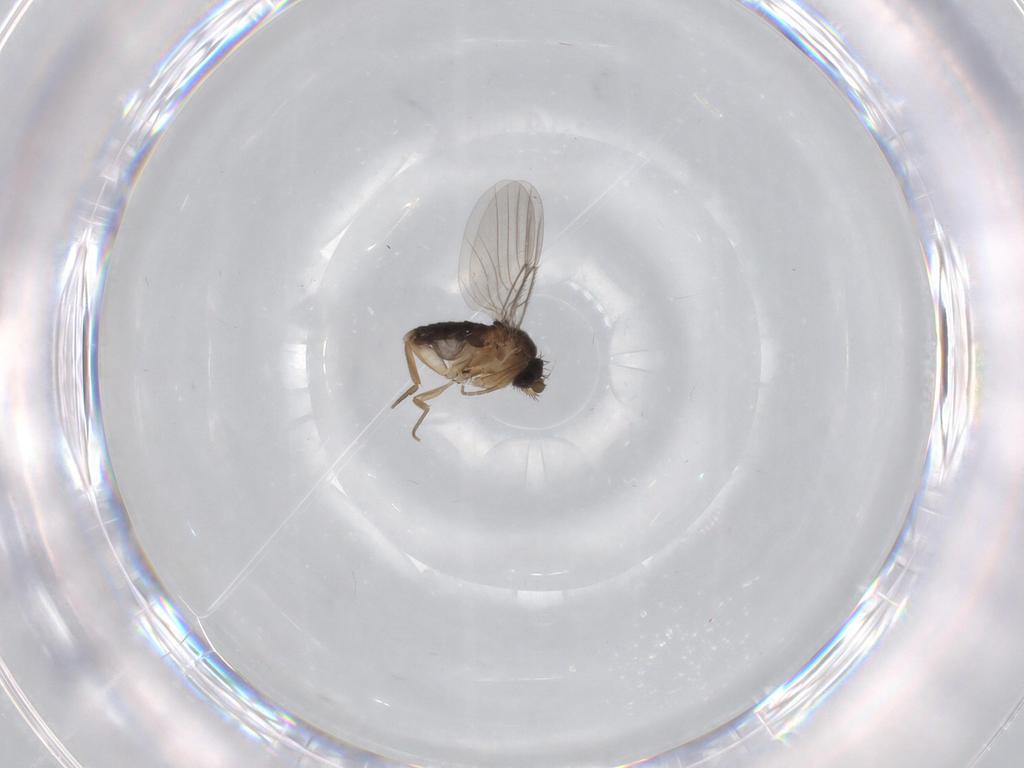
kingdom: Animalia
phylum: Arthropoda
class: Insecta
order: Diptera
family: Phoridae
